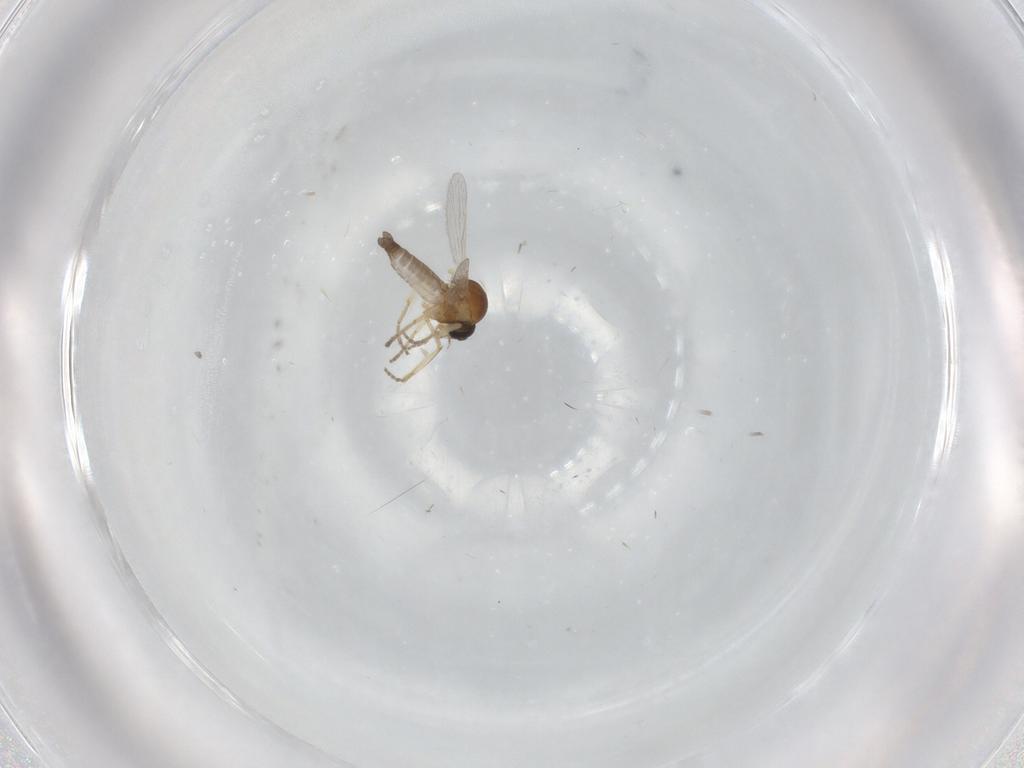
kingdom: Animalia
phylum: Arthropoda
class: Insecta
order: Diptera
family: Ceratopogonidae
